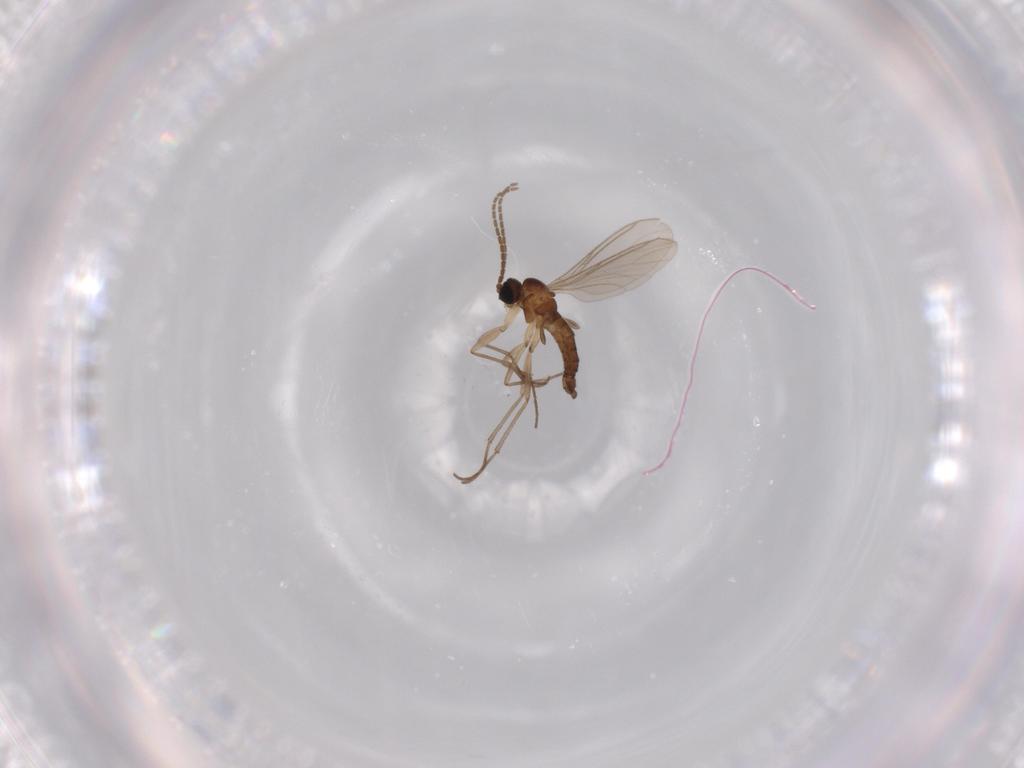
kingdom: Animalia
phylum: Arthropoda
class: Insecta
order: Diptera
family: Sciaridae
